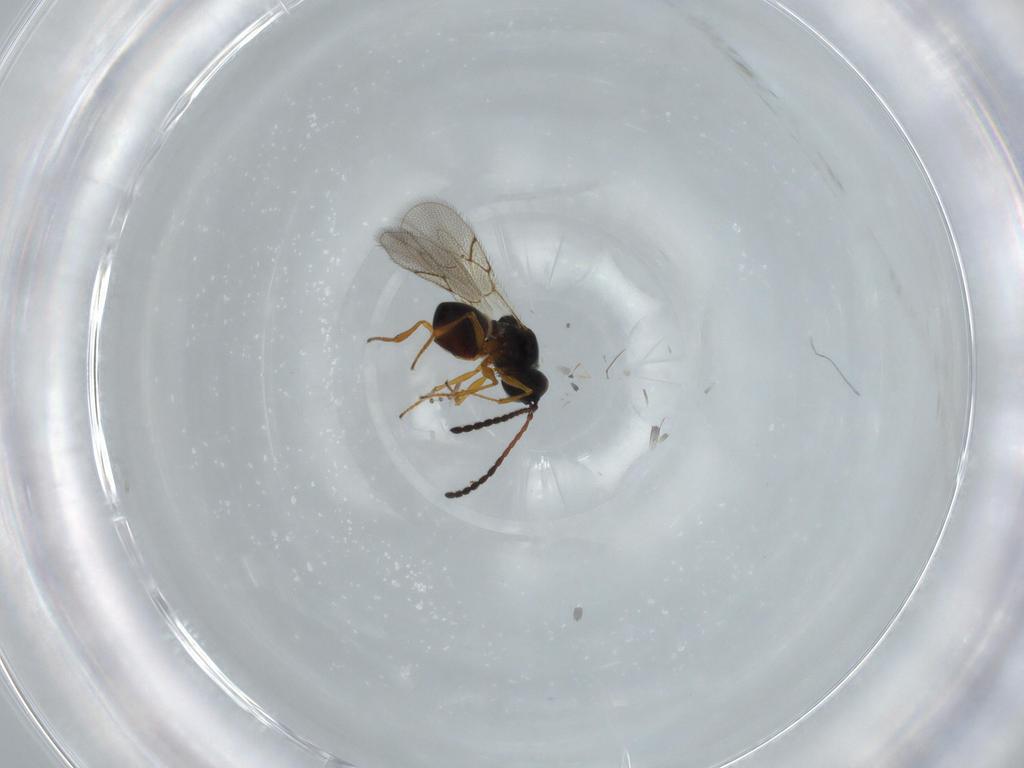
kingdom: Animalia
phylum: Arthropoda
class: Insecta
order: Hymenoptera
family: Figitidae
